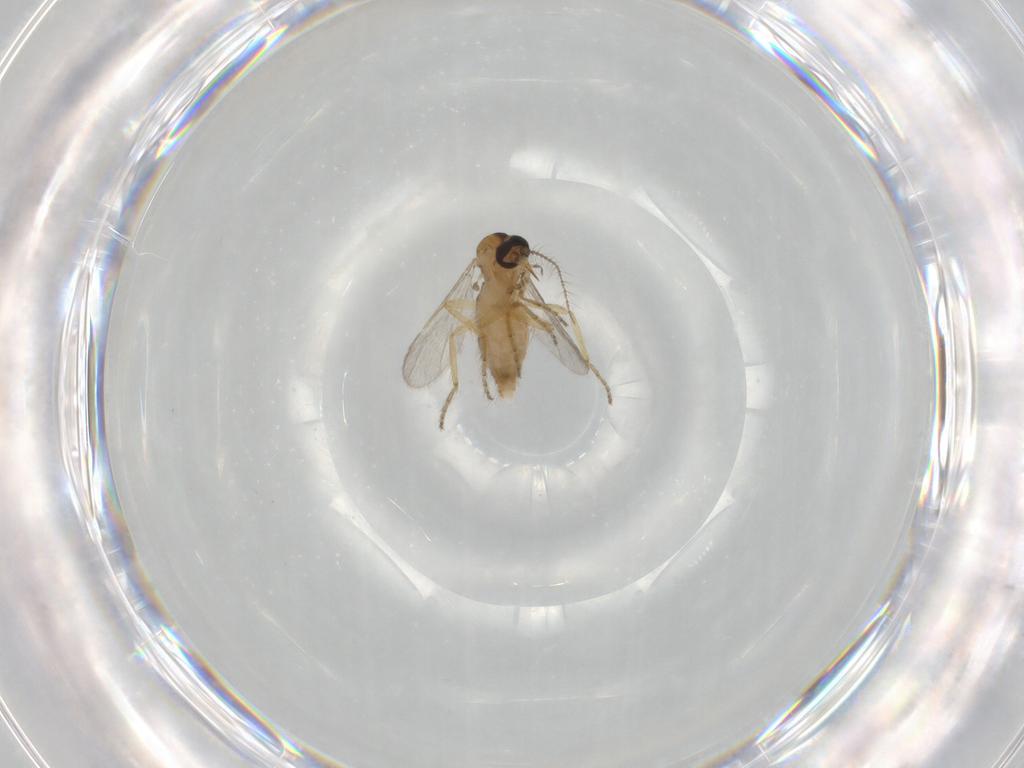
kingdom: Animalia
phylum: Arthropoda
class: Insecta
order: Diptera
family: Ceratopogonidae
